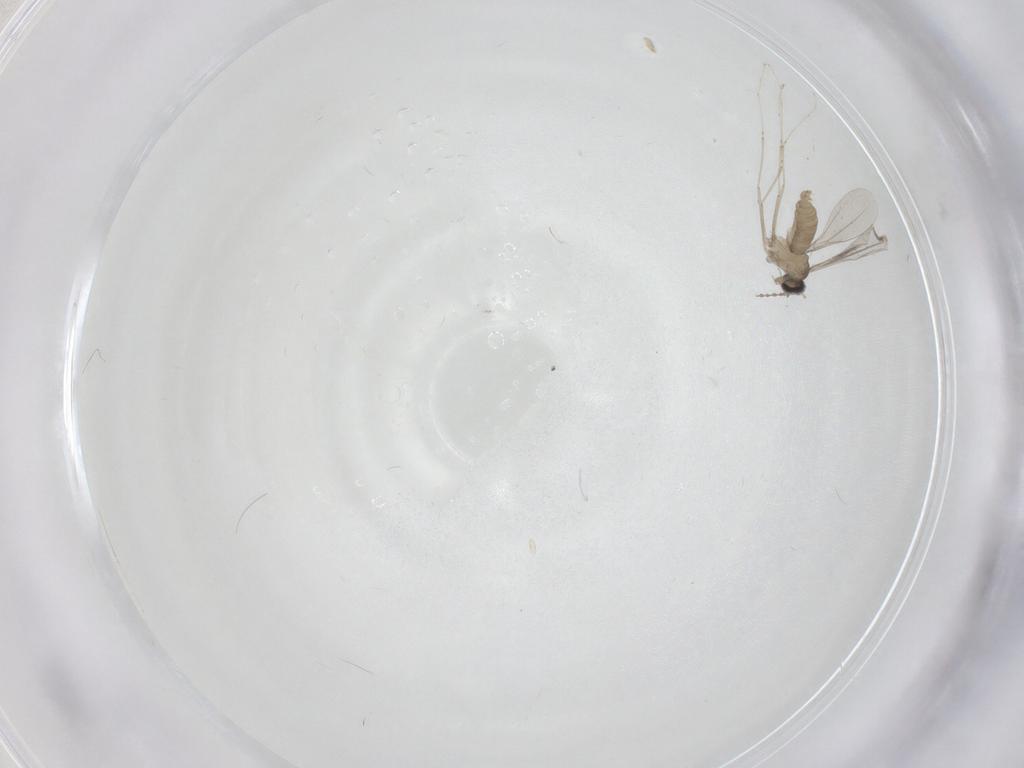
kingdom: Animalia
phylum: Arthropoda
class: Insecta
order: Diptera
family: Cecidomyiidae
